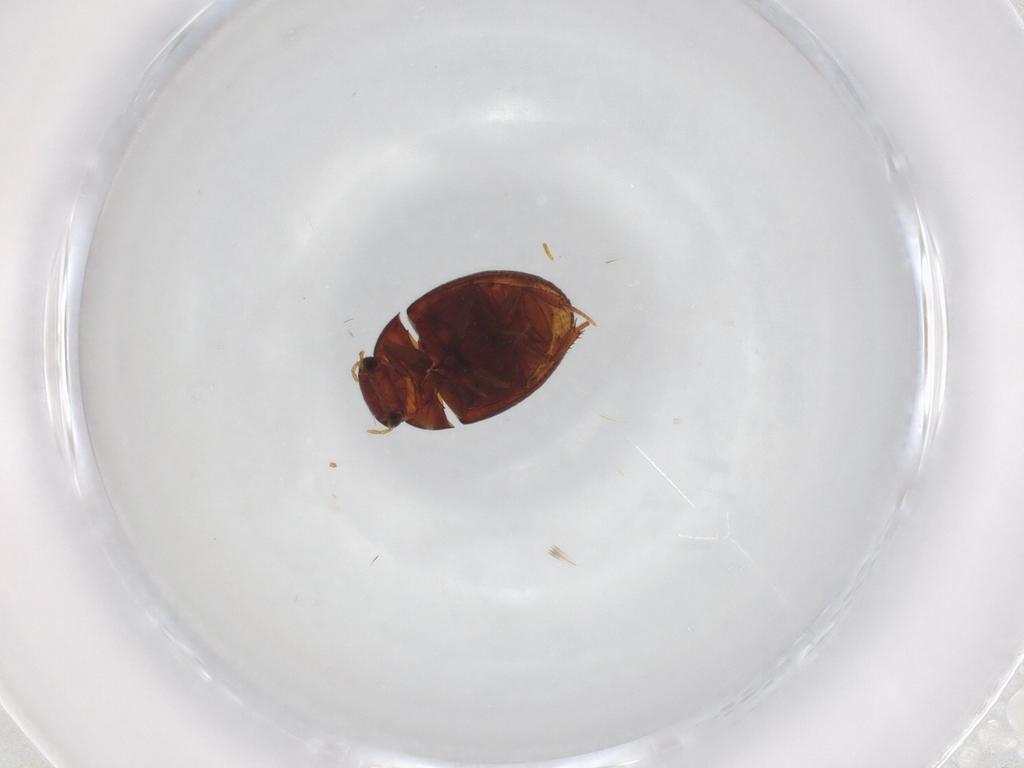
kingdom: Animalia
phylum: Arthropoda
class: Insecta
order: Coleoptera
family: Hydrophilidae
